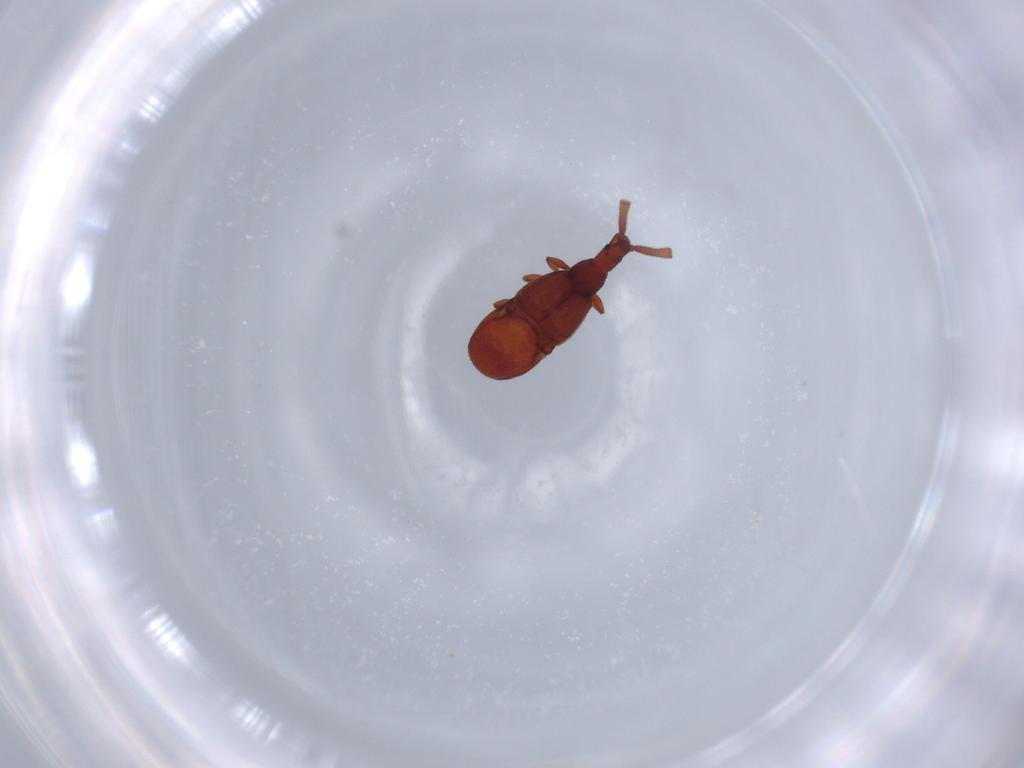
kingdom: Animalia
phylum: Arthropoda
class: Insecta
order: Coleoptera
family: Staphylinidae
